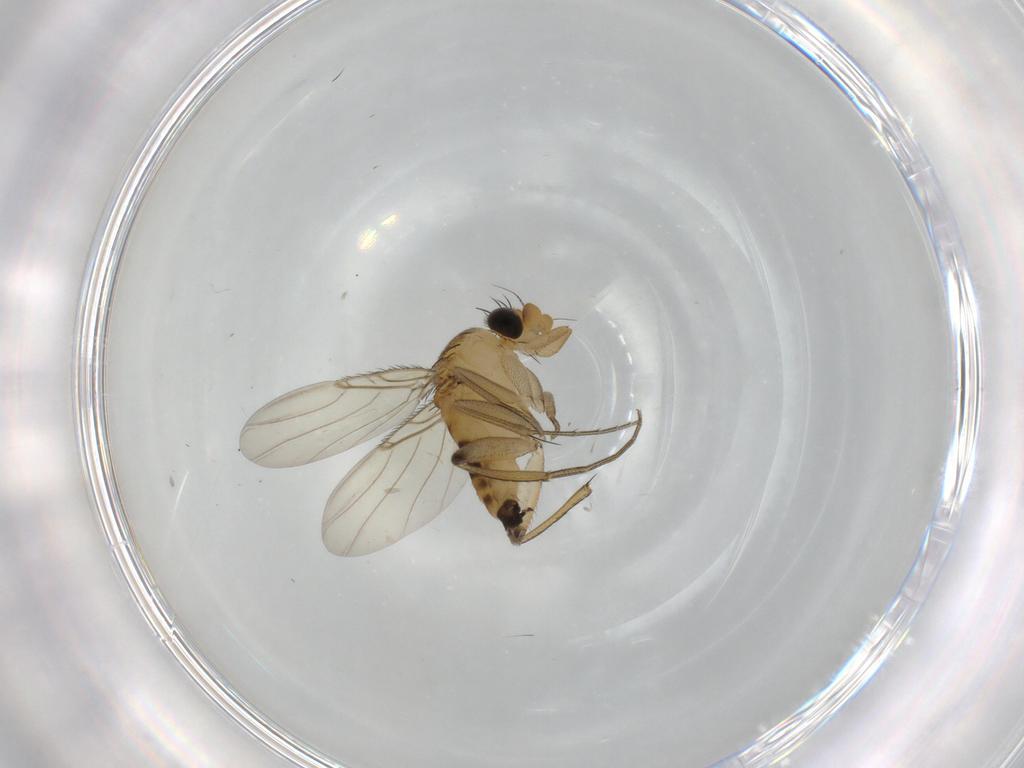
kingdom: Animalia
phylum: Arthropoda
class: Insecta
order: Diptera
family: Phoridae
